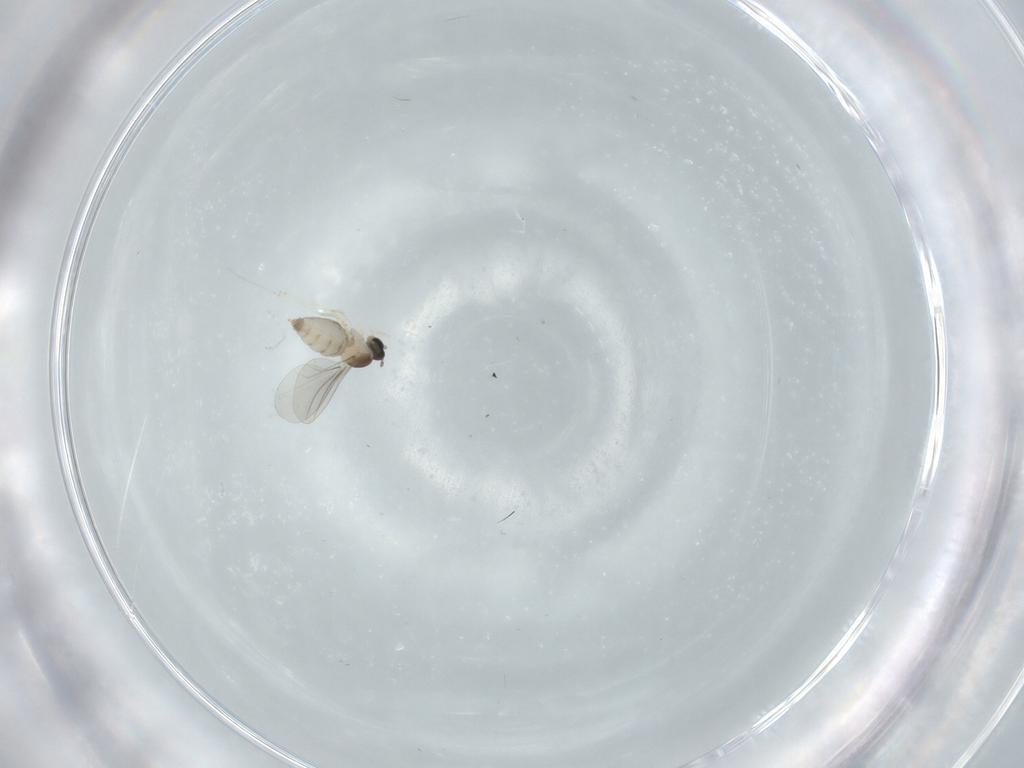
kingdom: Animalia
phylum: Arthropoda
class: Insecta
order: Diptera
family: Cecidomyiidae
